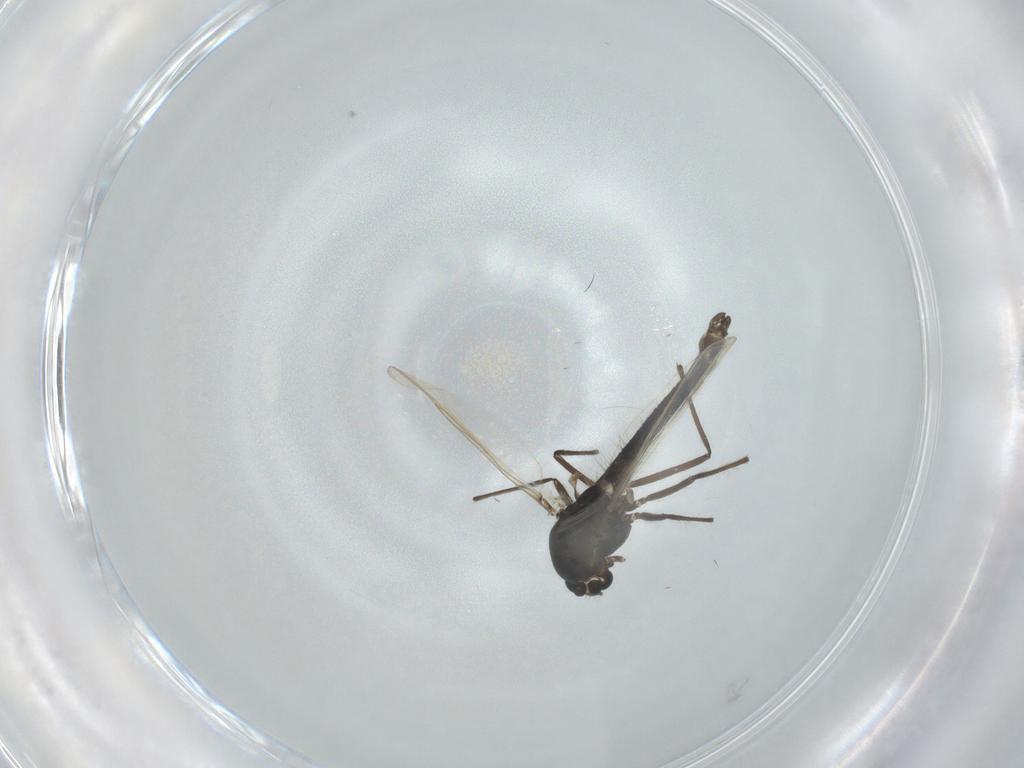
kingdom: Animalia
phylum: Arthropoda
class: Insecta
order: Diptera
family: Chironomidae
